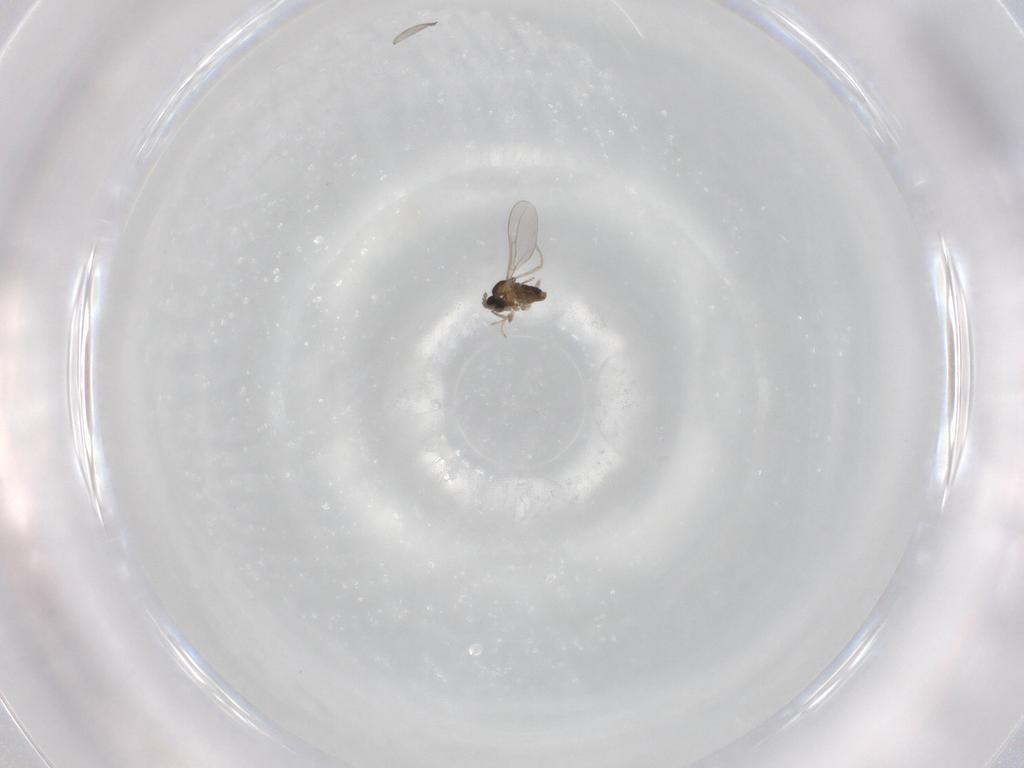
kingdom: Animalia
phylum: Arthropoda
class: Insecta
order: Diptera
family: Cecidomyiidae
